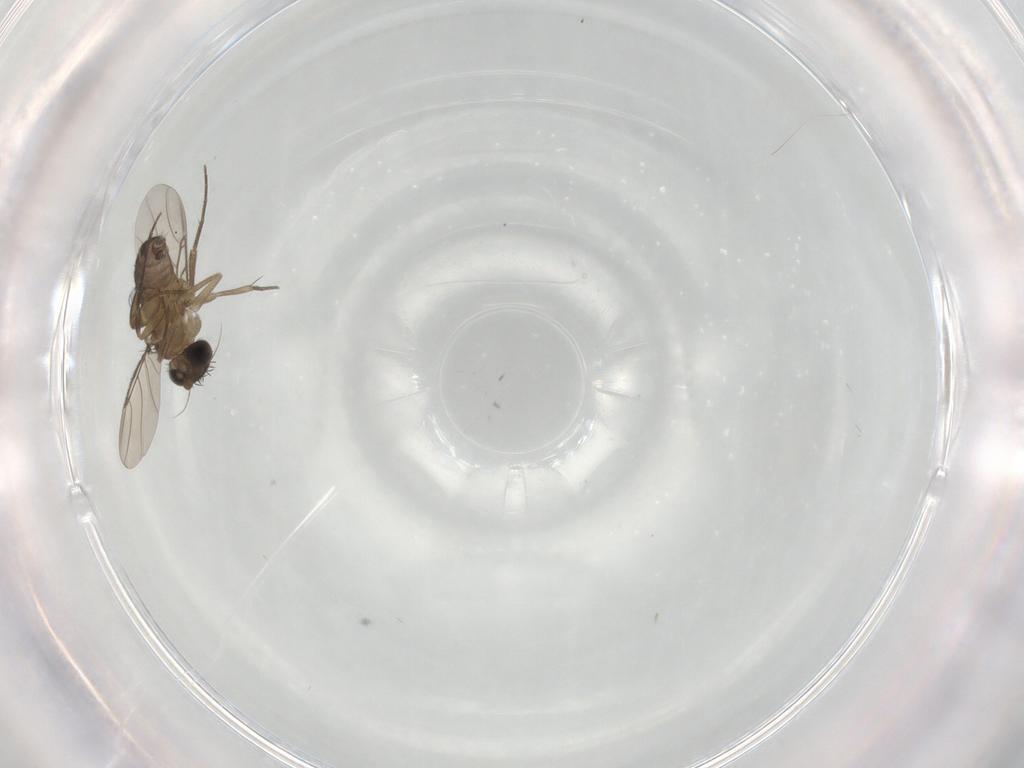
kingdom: Animalia
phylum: Arthropoda
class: Insecta
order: Diptera
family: Phoridae
